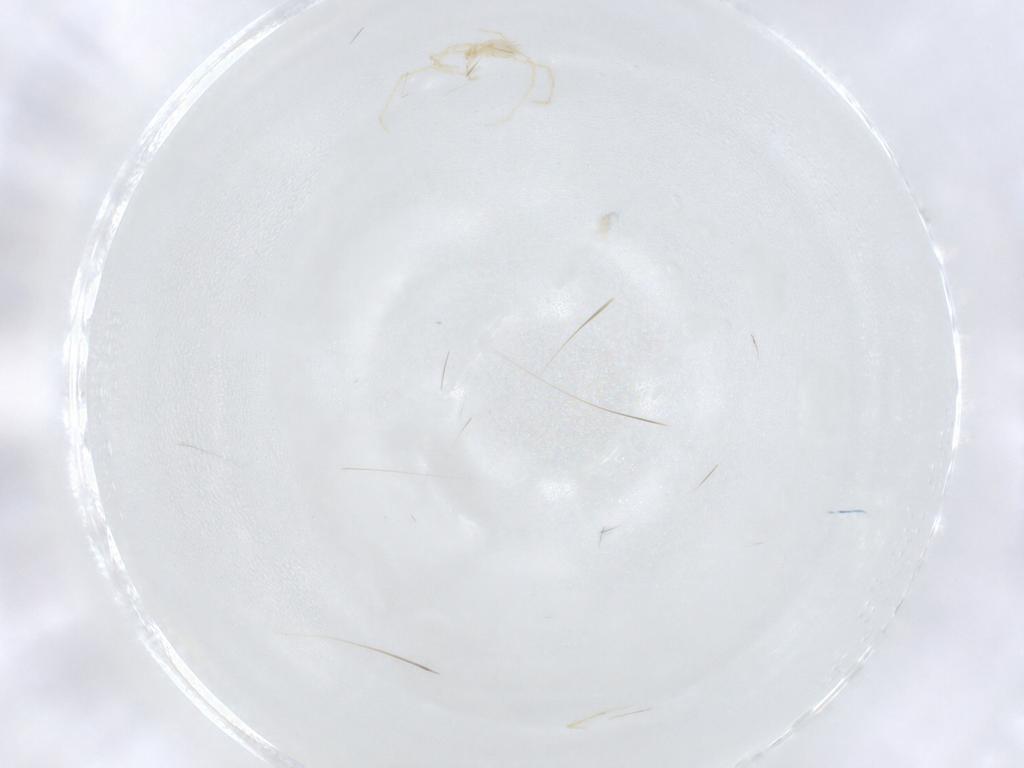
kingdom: Animalia
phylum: Arthropoda
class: Arachnida
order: Trombidiformes
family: Erythraeidae
